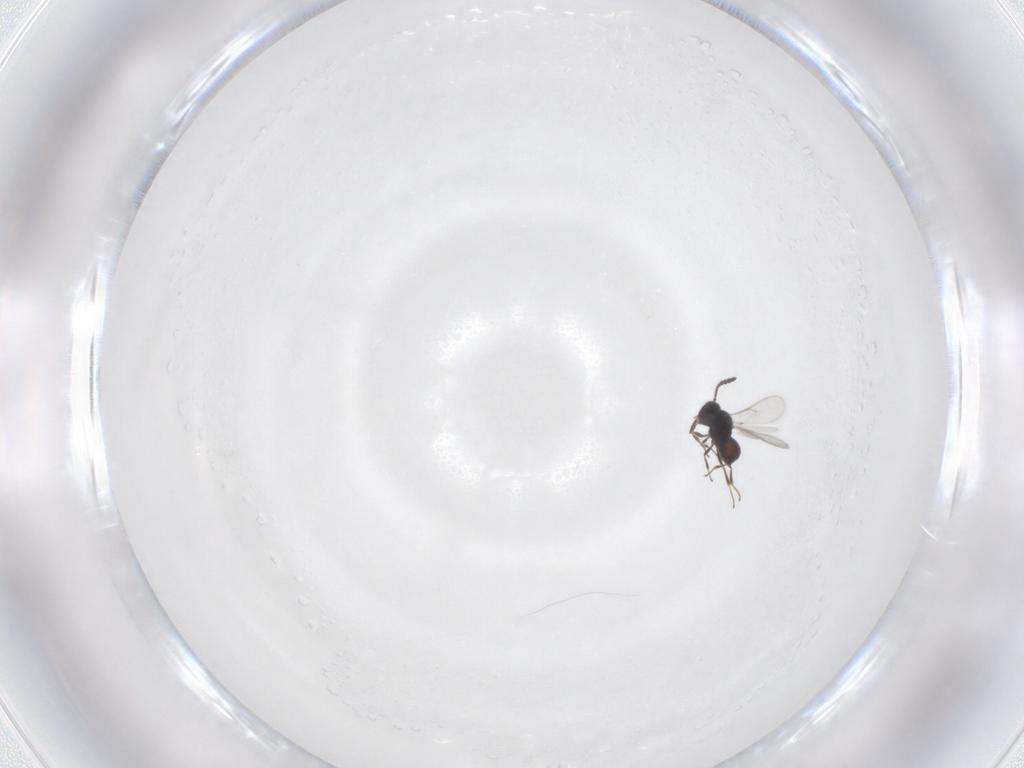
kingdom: Animalia
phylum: Arthropoda
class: Insecta
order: Hymenoptera
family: Scelionidae
